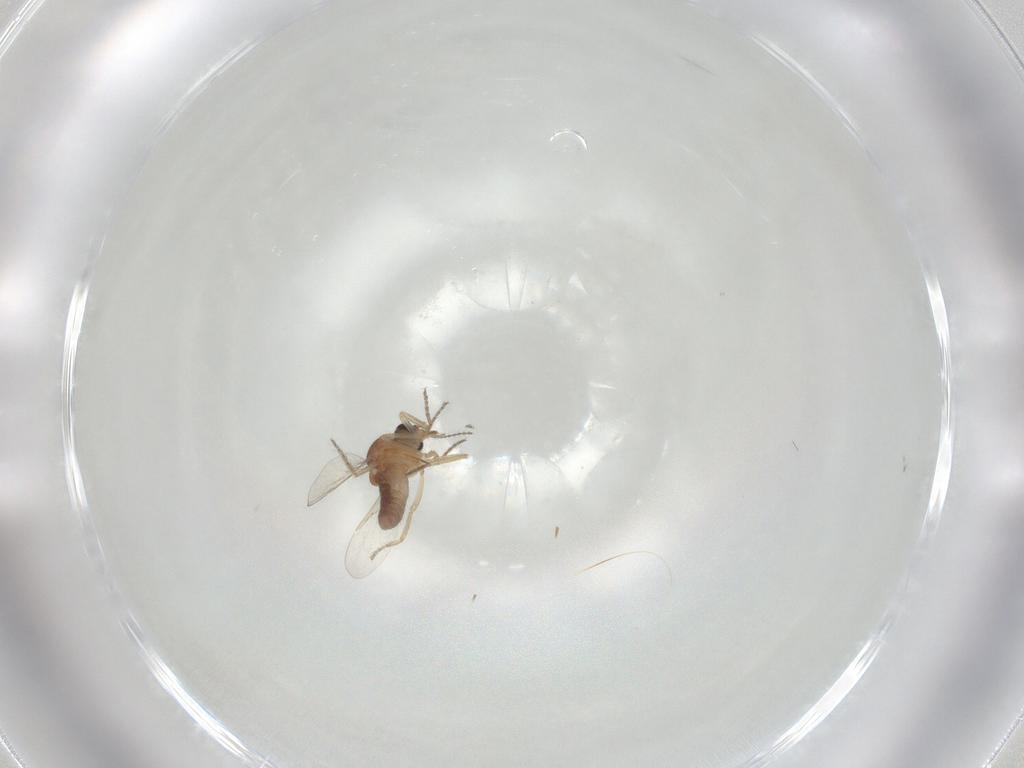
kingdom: Animalia
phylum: Arthropoda
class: Insecta
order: Diptera
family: Ceratopogonidae
